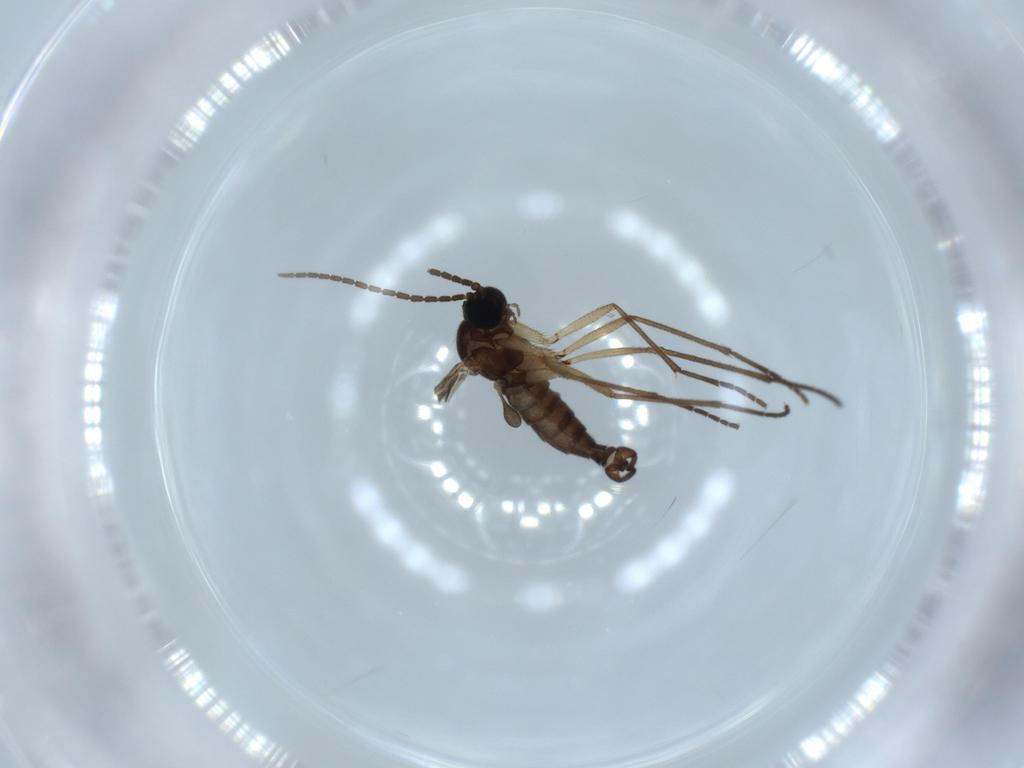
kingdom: Animalia
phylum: Arthropoda
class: Insecta
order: Diptera
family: Sciaridae
